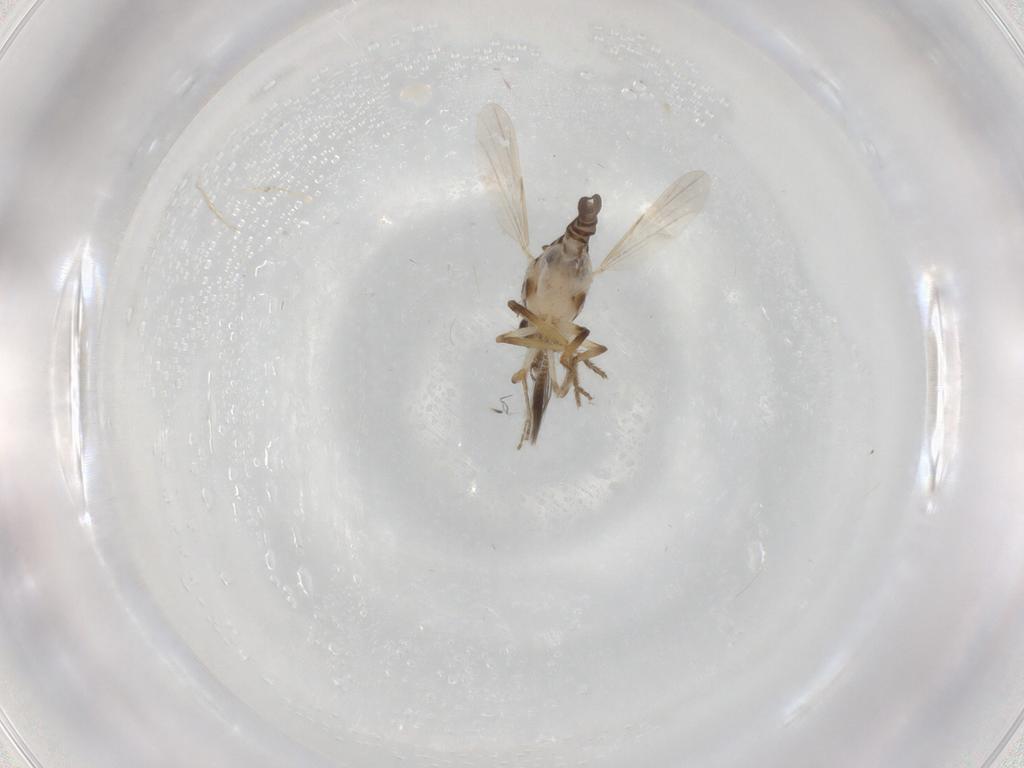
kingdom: Animalia
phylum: Arthropoda
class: Insecta
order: Diptera
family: Ceratopogonidae
